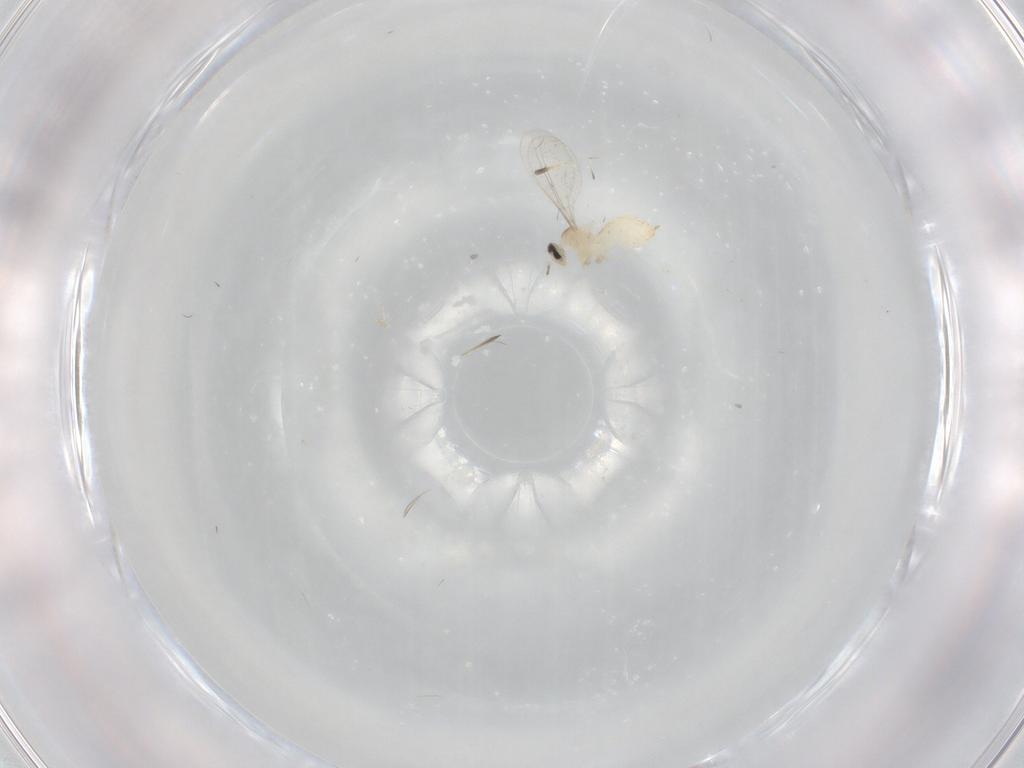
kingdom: Animalia
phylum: Arthropoda
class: Insecta
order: Diptera
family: Cecidomyiidae
